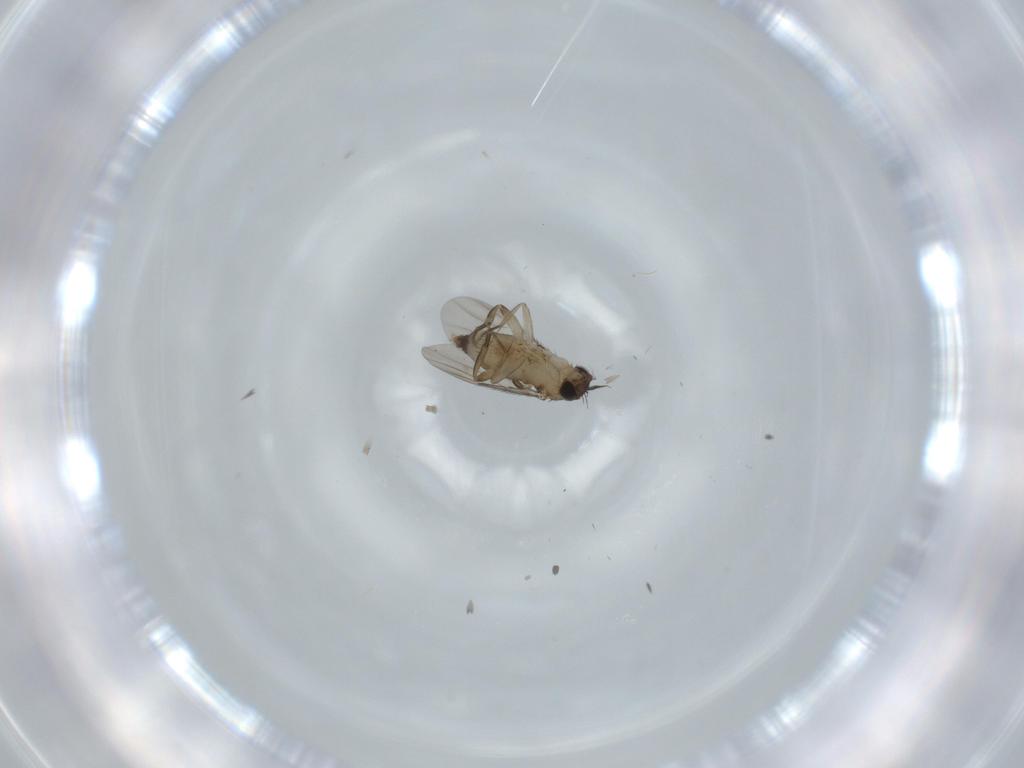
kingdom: Animalia
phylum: Arthropoda
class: Insecta
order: Diptera
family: Phoridae
